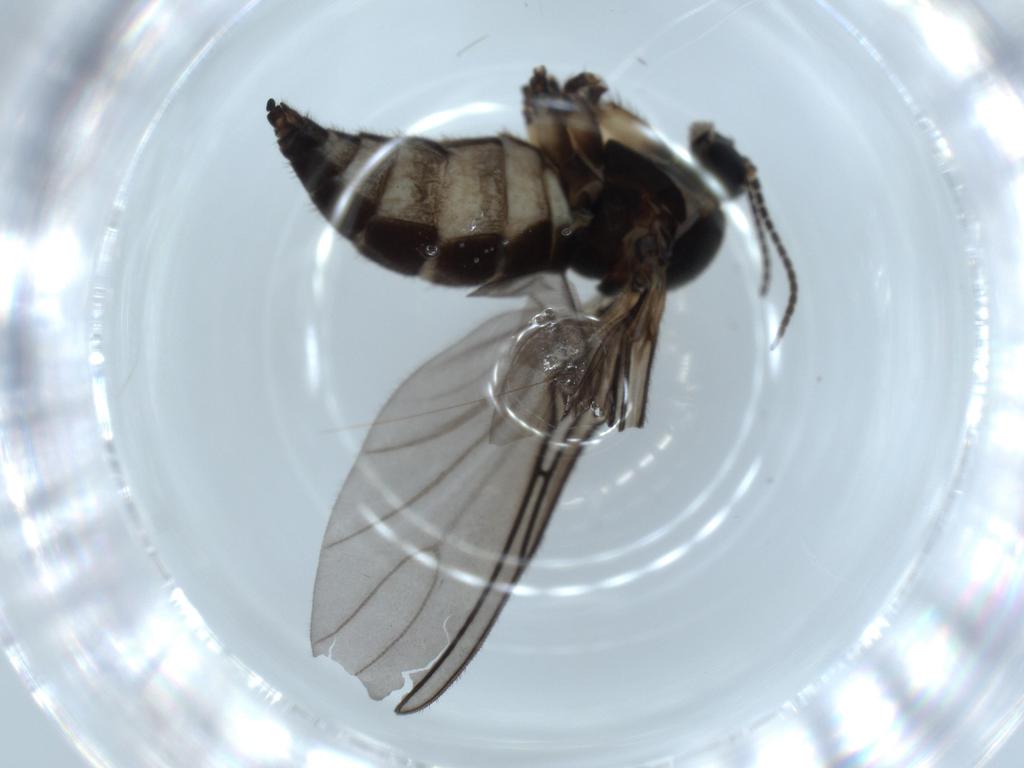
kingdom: Animalia
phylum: Arthropoda
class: Insecta
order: Diptera
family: Sciaridae
